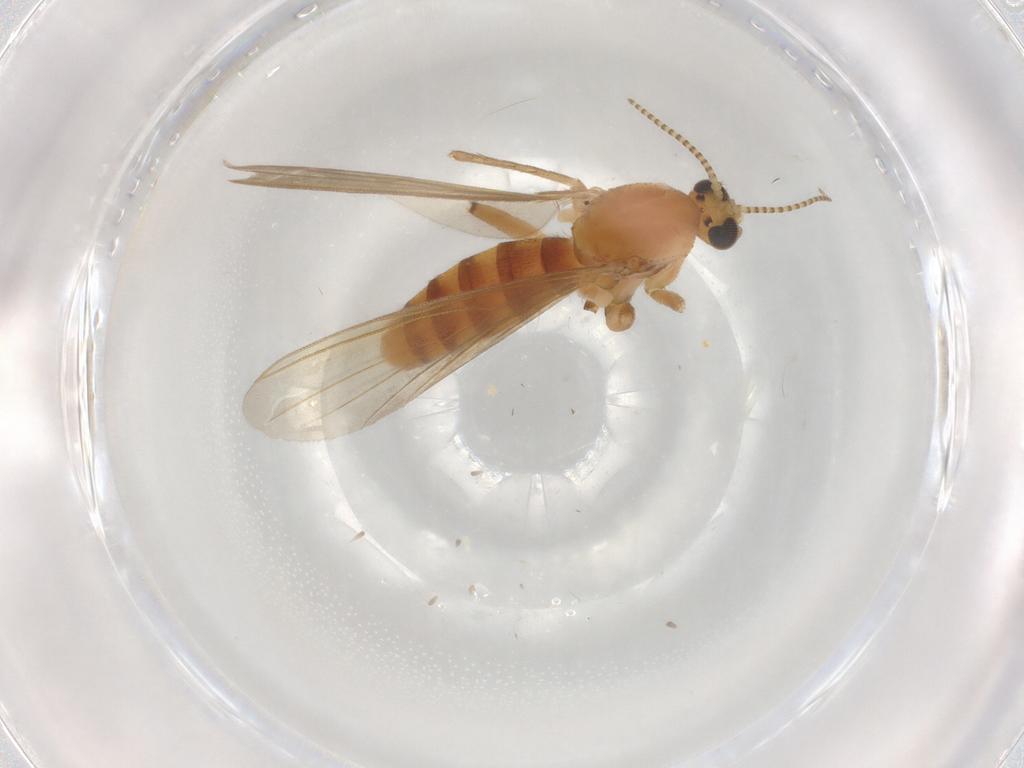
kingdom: Animalia
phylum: Arthropoda
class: Insecta
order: Diptera
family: Mycetophilidae
